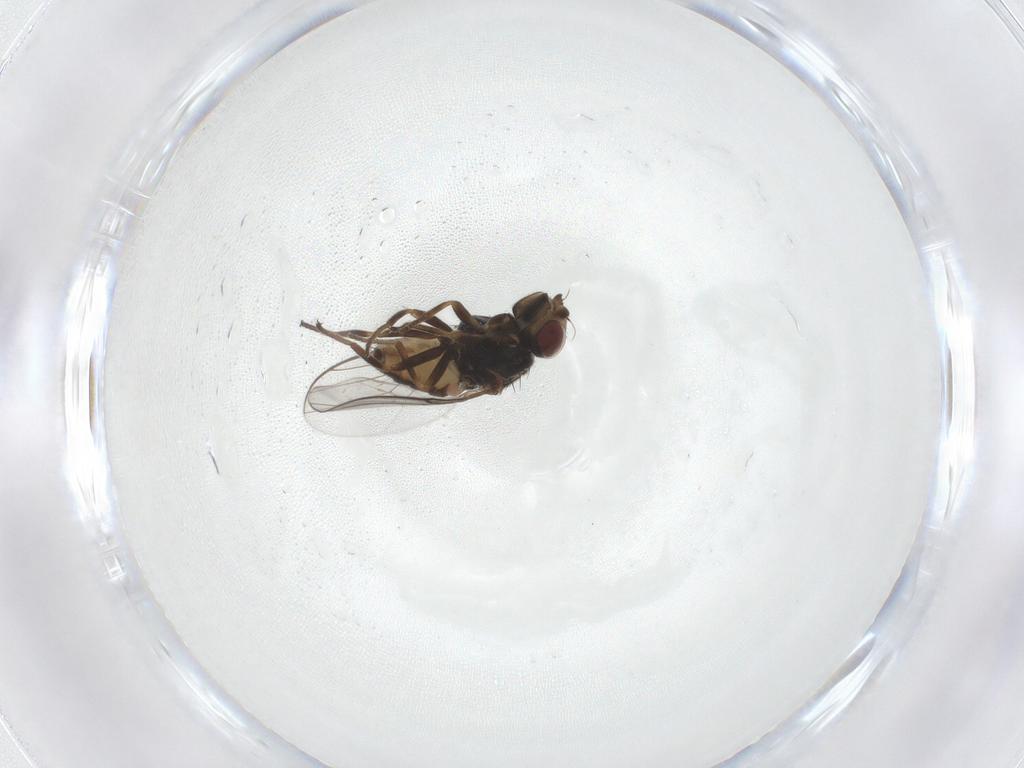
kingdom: Animalia
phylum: Arthropoda
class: Insecta
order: Diptera
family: Chloropidae
